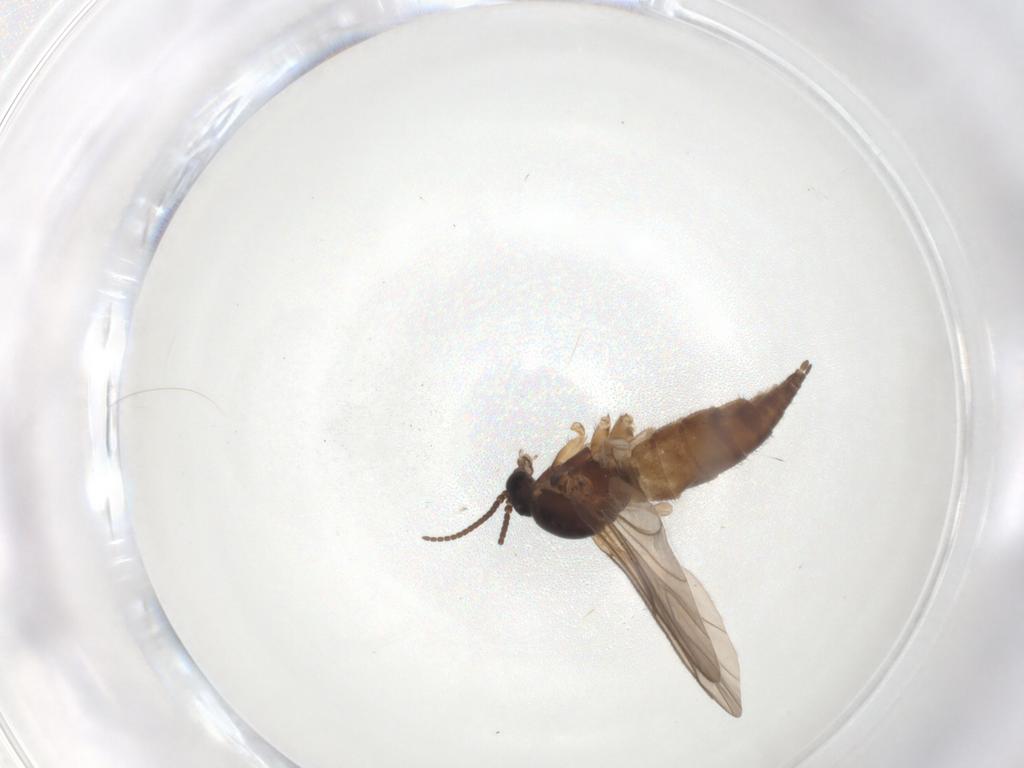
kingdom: Animalia
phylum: Arthropoda
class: Insecta
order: Diptera
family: Sciaridae
